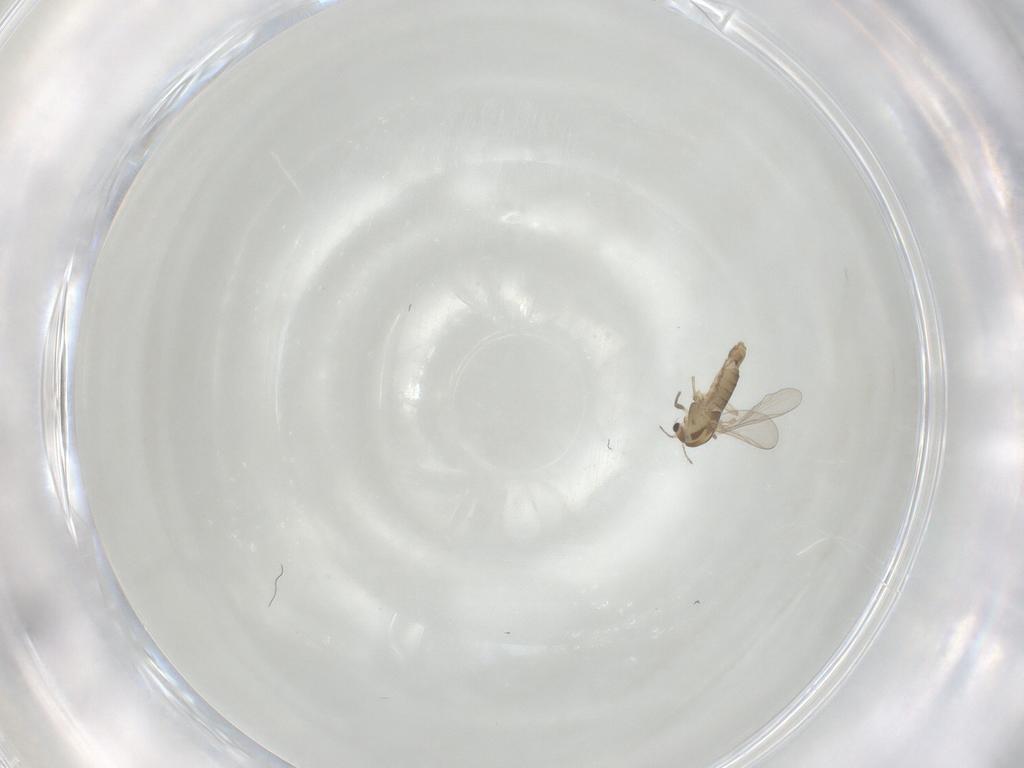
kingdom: Animalia
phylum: Arthropoda
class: Insecta
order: Diptera
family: Chironomidae
